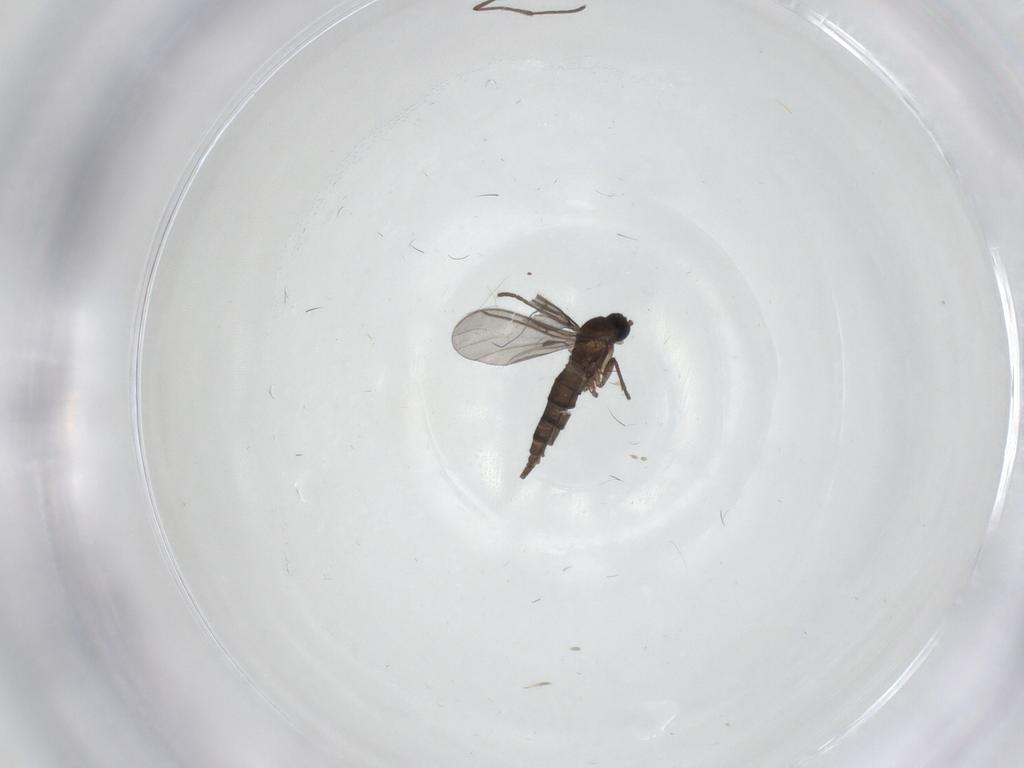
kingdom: Animalia
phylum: Arthropoda
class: Insecta
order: Diptera
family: Sciaridae
